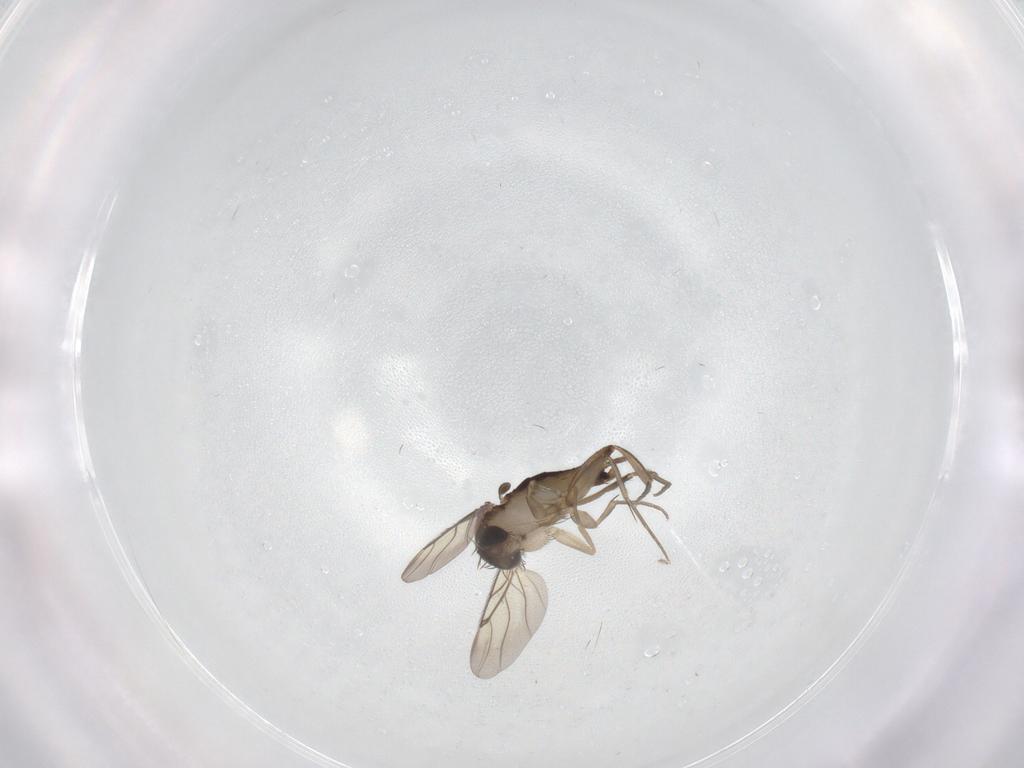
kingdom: Animalia
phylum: Arthropoda
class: Insecta
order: Diptera
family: Phoridae
